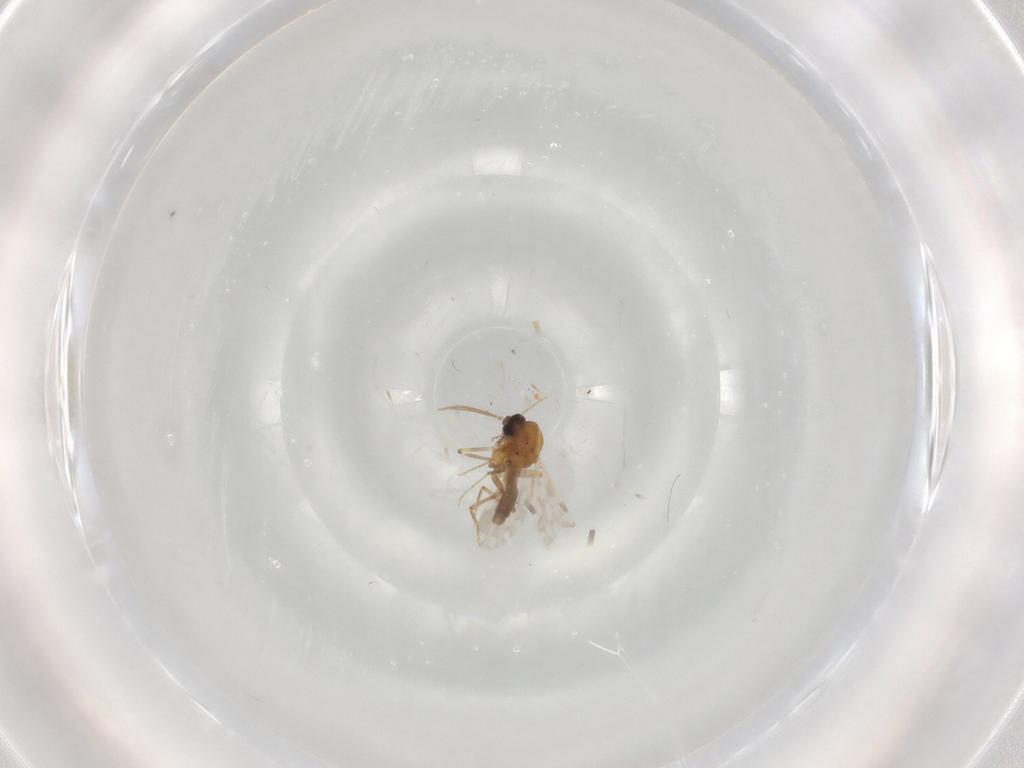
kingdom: Animalia
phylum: Arthropoda
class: Insecta
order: Diptera
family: Ceratopogonidae
